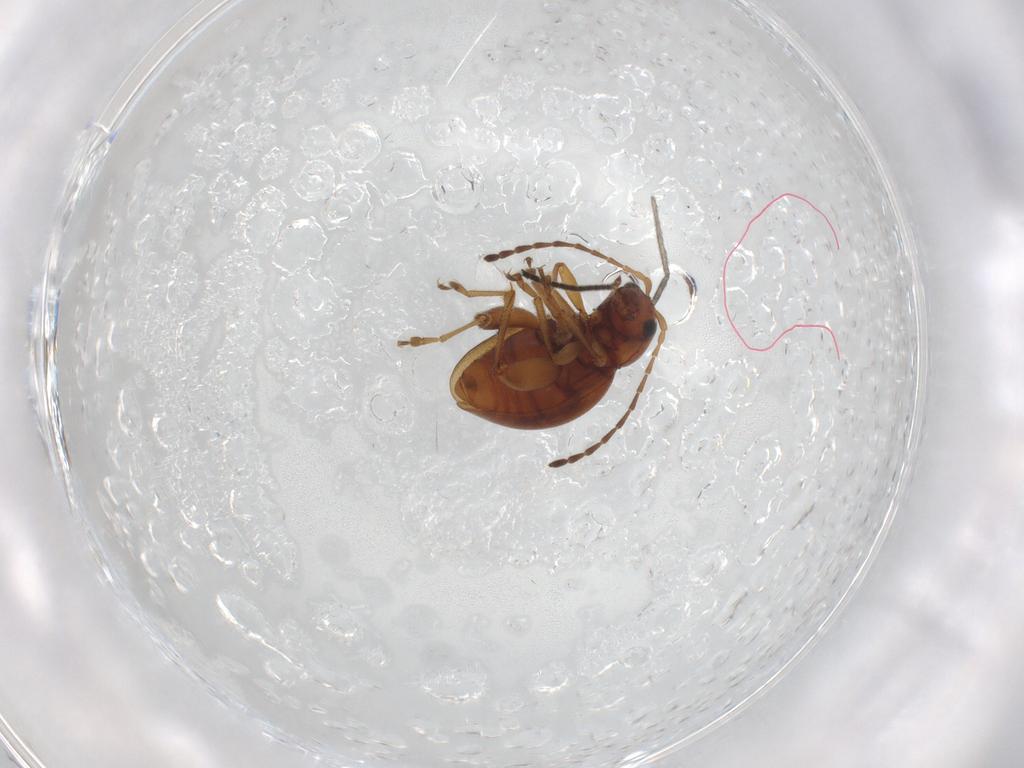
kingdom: Animalia
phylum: Arthropoda
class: Insecta
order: Coleoptera
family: Chrysomelidae
